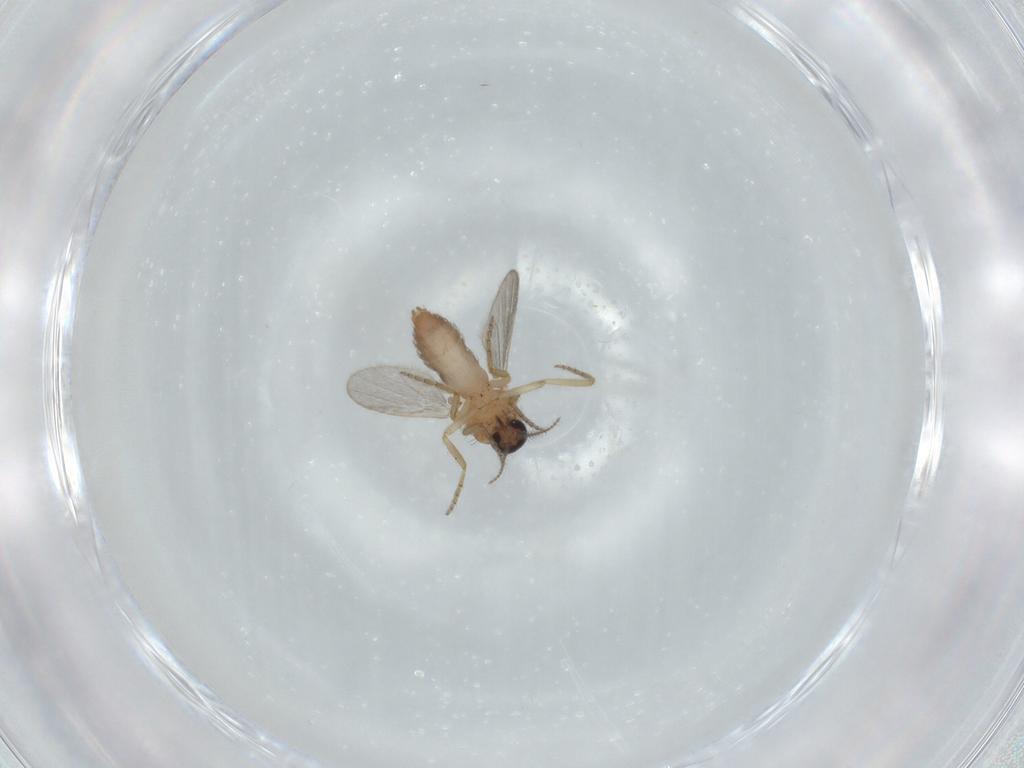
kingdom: Animalia
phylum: Arthropoda
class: Insecta
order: Diptera
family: Ceratopogonidae
